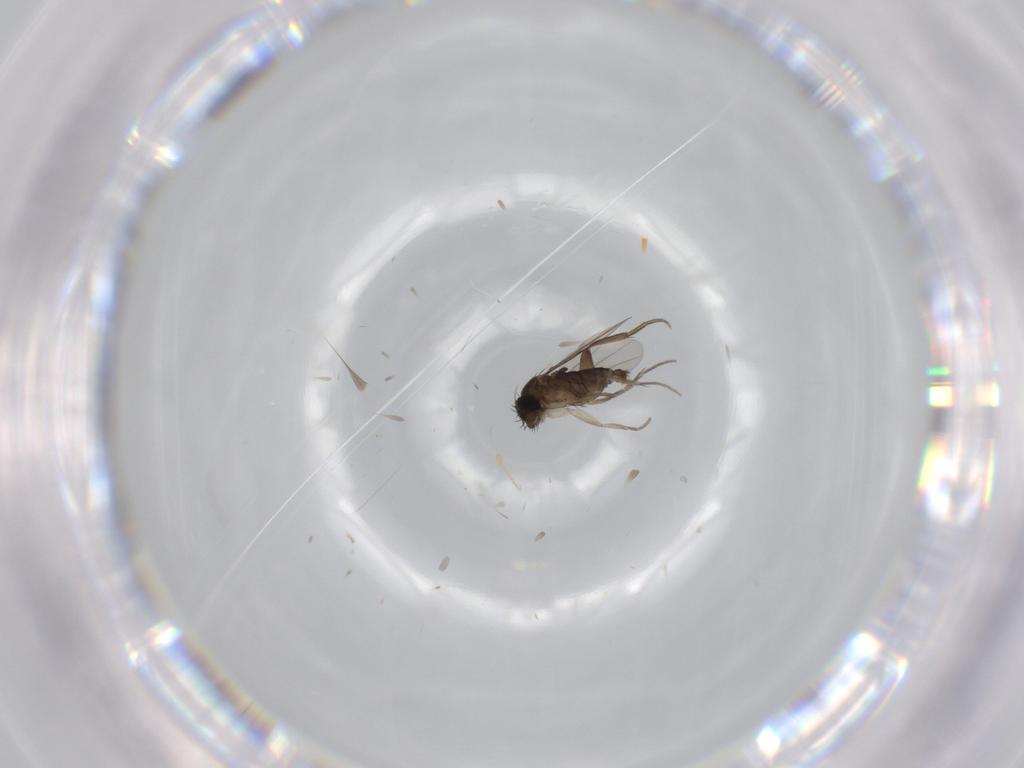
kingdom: Animalia
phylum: Arthropoda
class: Insecta
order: Diptera
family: Phoridae
